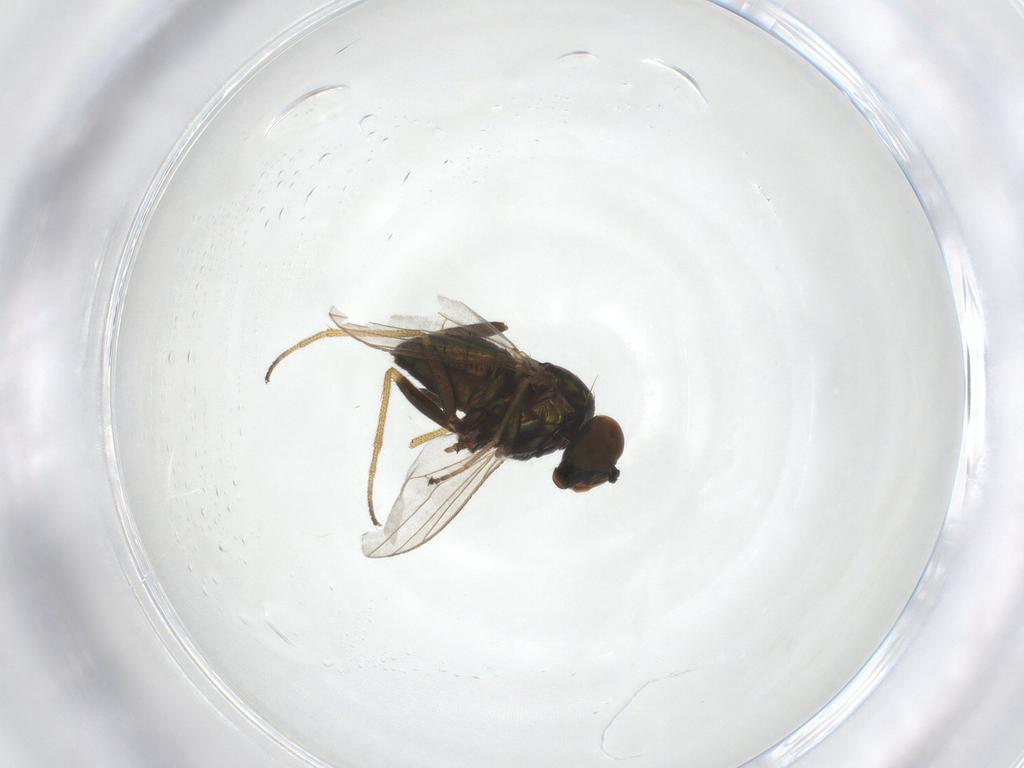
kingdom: Animalia
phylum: Arthropoda
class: Insecta
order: Diptera
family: Dolichopodidae
